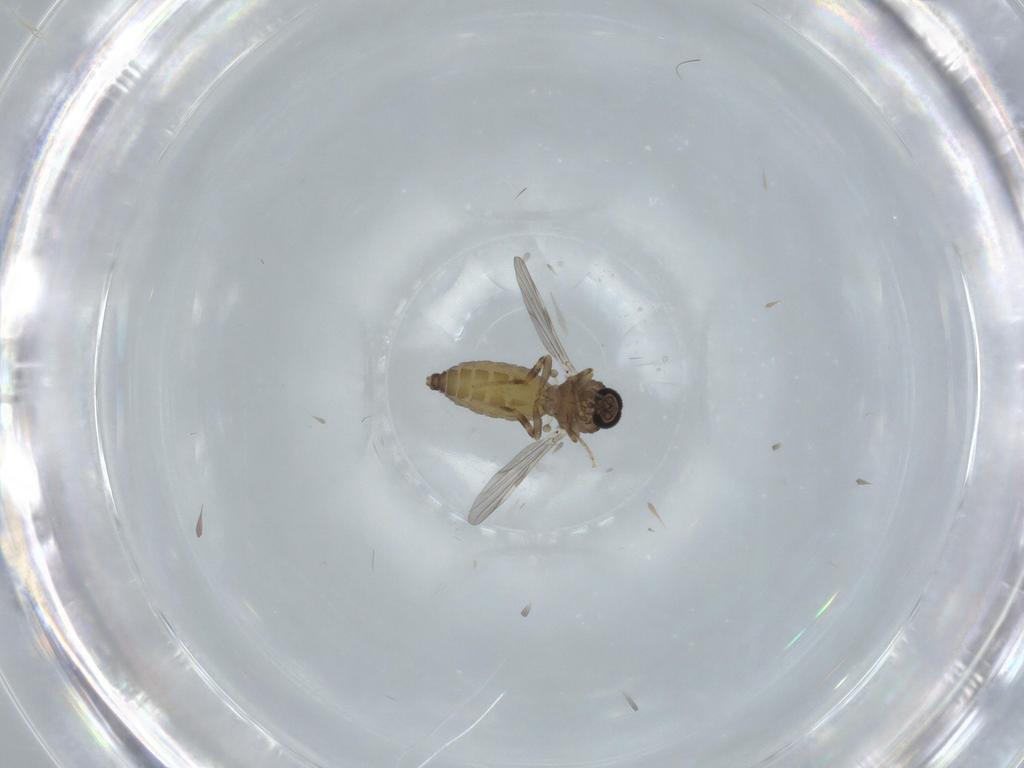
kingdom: Animalia
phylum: Arthropoda
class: Insecta
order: Diptera
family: Ceratopogonidae
